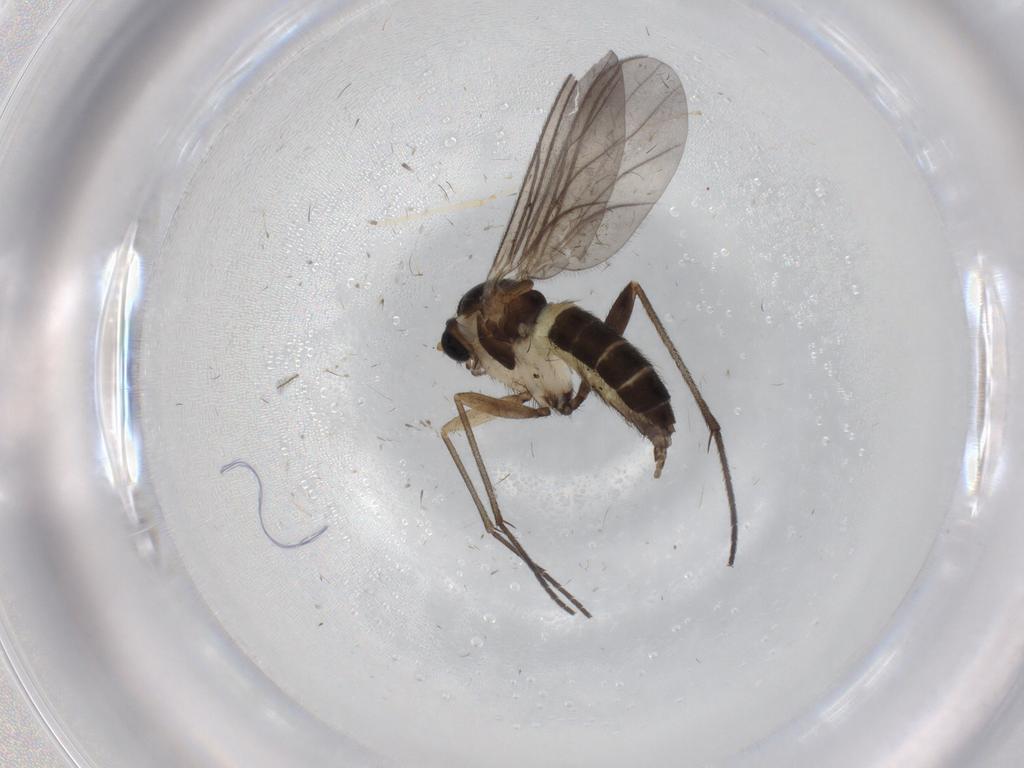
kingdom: Animalia
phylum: Arthropoda
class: Insecta
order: Diptera
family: Sciaridae
